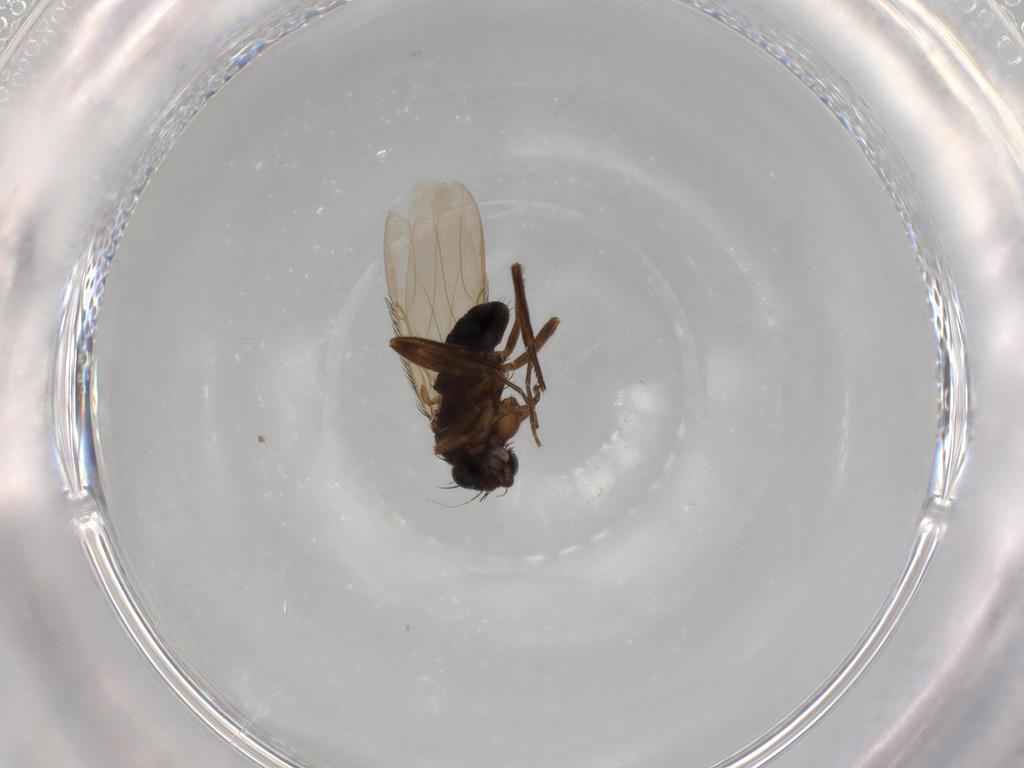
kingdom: Animalia
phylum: Arthropoda
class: Insecta
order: Diptera
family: Phoridae
